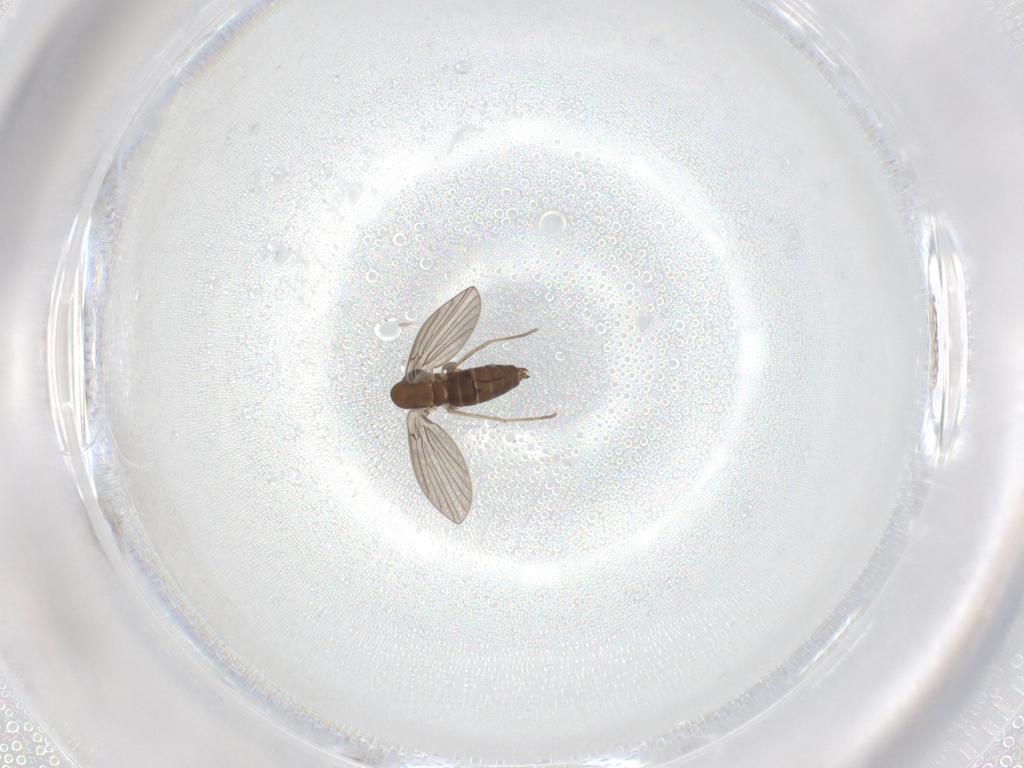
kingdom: Animalia
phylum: Arthropoda
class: Insecta
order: Diptera
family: Psychodidae
